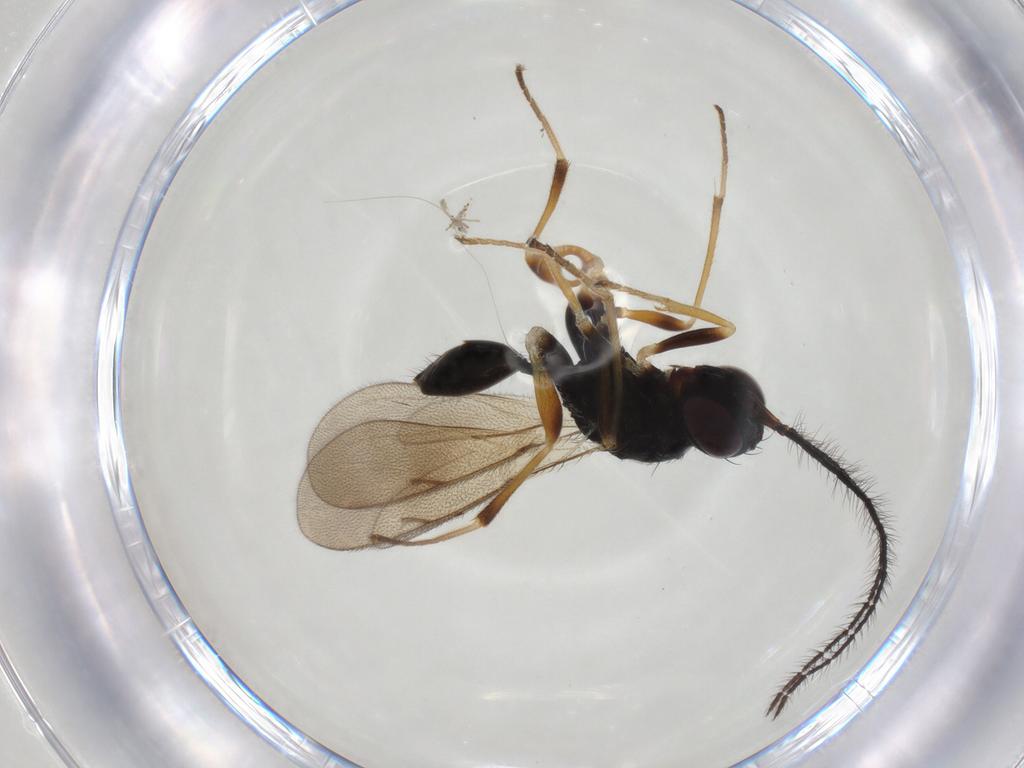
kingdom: Animalia
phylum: Arthropoda
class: Insecta
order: Hymenoptera
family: Diparidae
